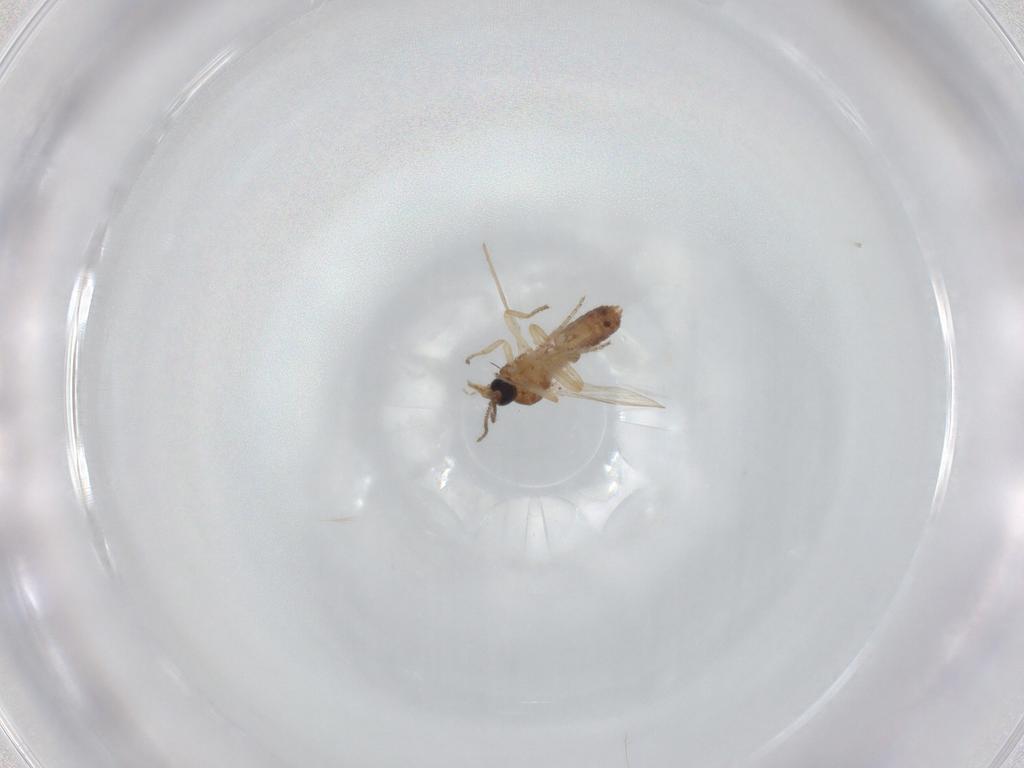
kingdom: Animalia
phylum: Arthropoda
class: Insecta
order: Diptera
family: Ceratopogonidae
